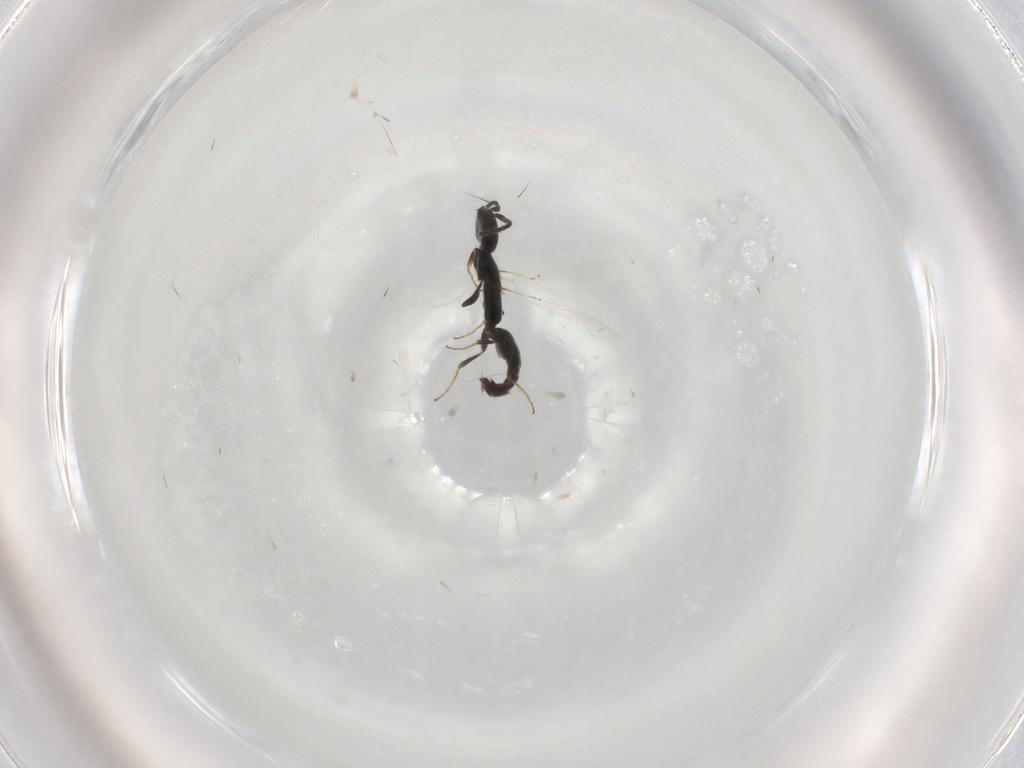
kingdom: Animalia
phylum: Arthropoda
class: Insecta
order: Hymenoptera
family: Bethylidae
